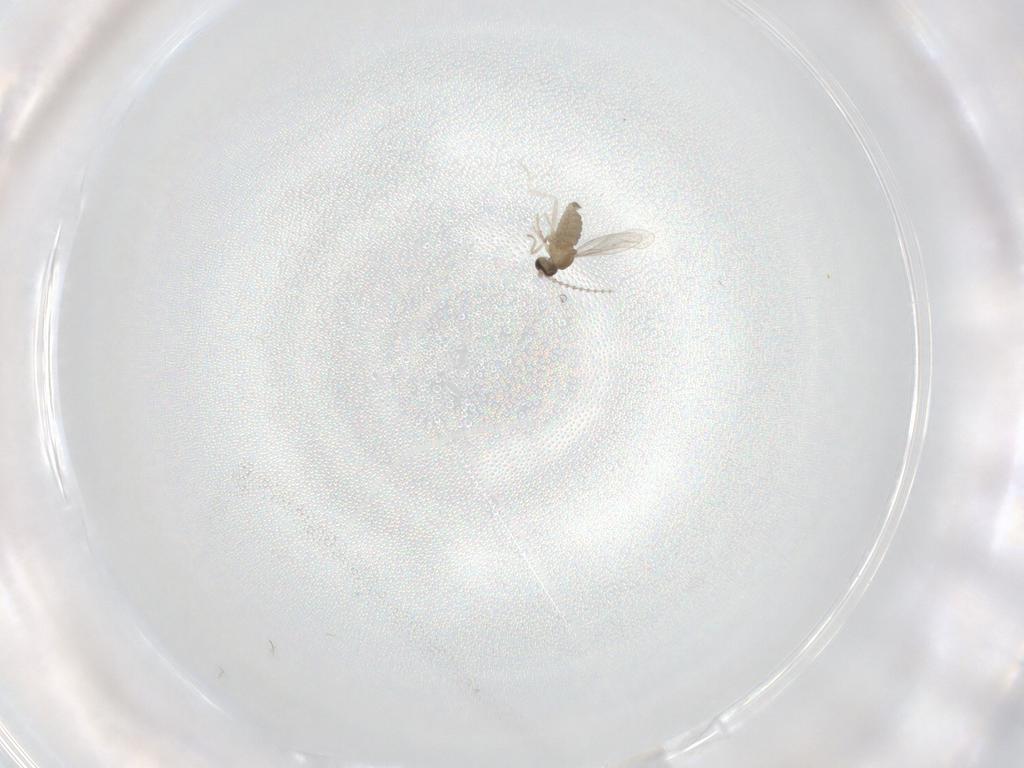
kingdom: Animalia
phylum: Arthropoda
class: Insecta
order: Diptera
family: Cecidomyiidae
